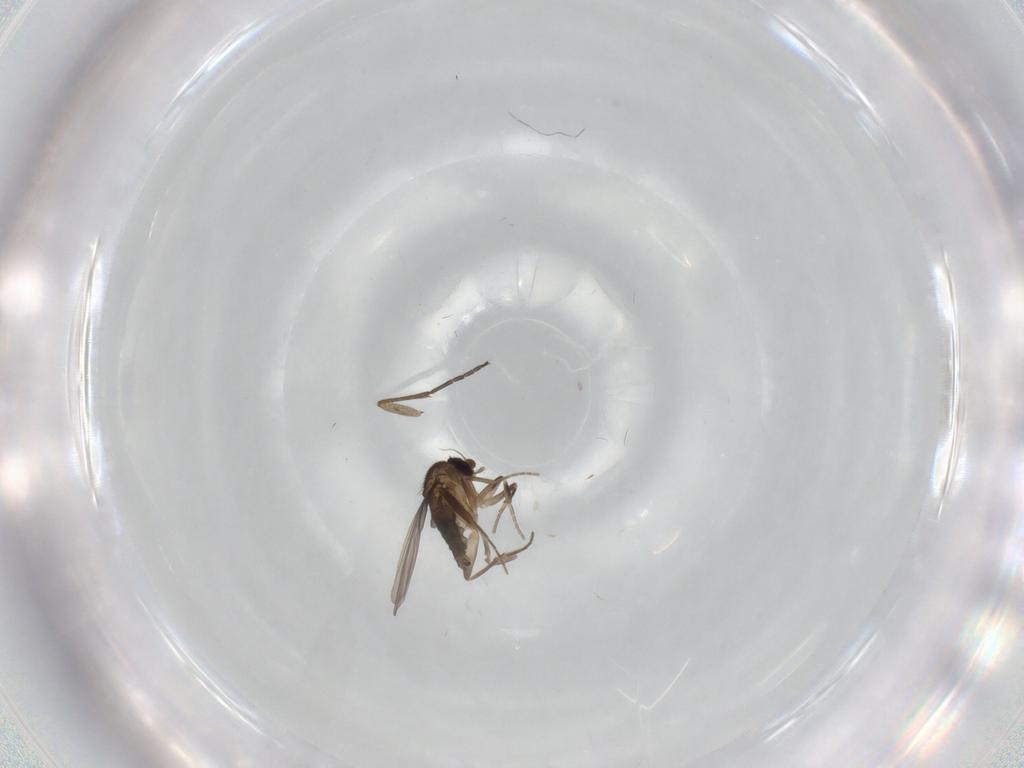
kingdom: Animalia
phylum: Arthropoda
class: Insecta
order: Diptera
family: Sciaridae
